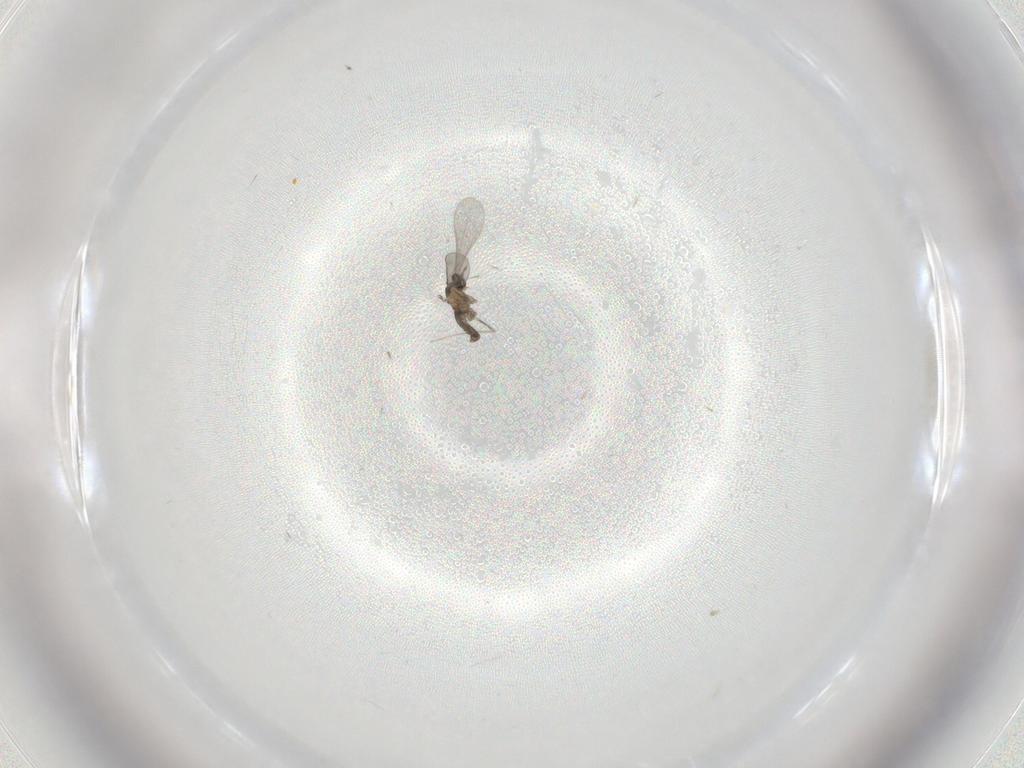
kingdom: Animalia
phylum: Arthropoda
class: Insecta
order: Diptera
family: Cecidomyiidae
